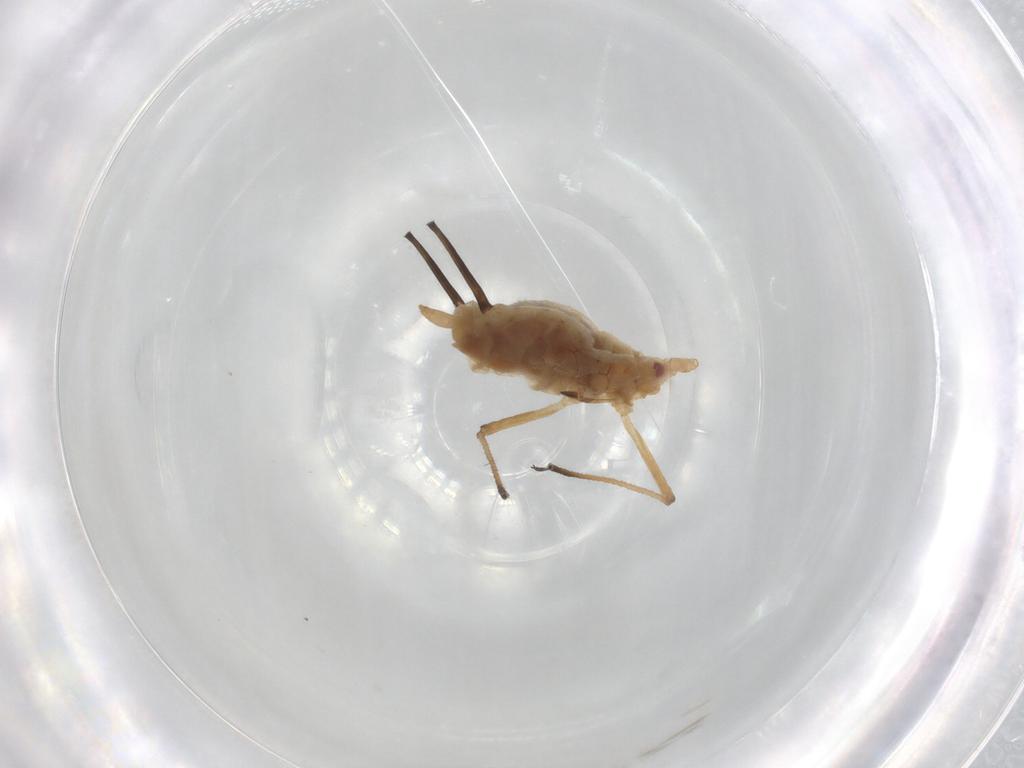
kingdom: Animalia
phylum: Arthropoda
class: Insecta
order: Hemiptera
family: Aphididae
